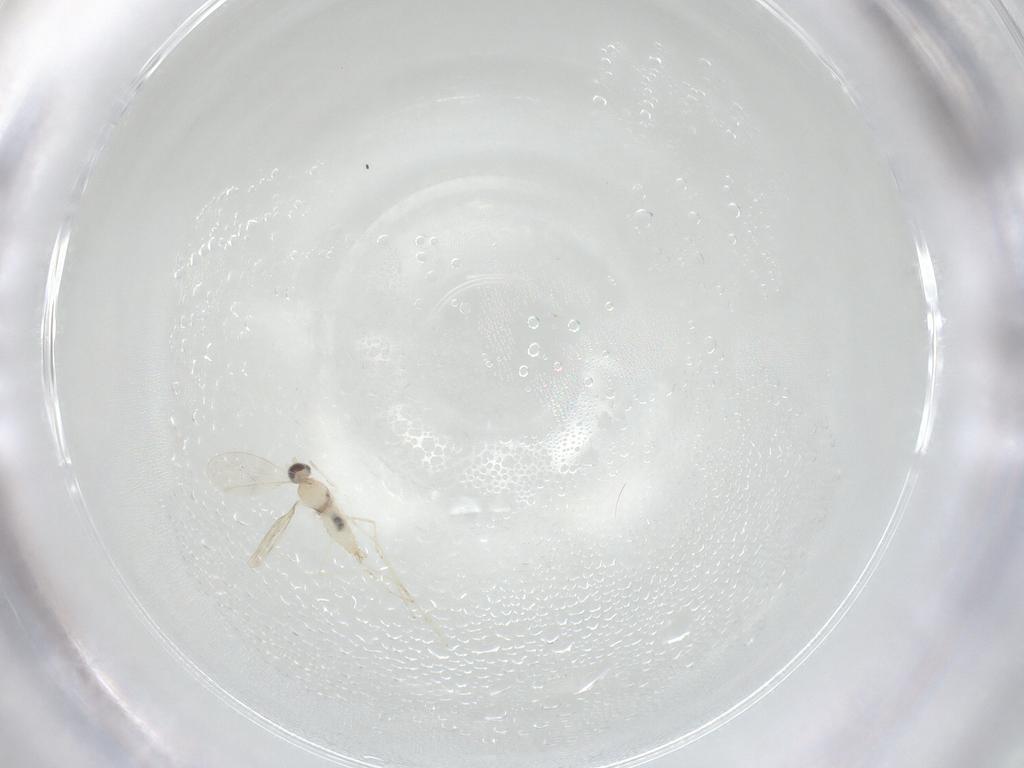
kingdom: Animalia
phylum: Arthropoda
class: Insecta
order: Diptera
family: Cecidomyiidae
